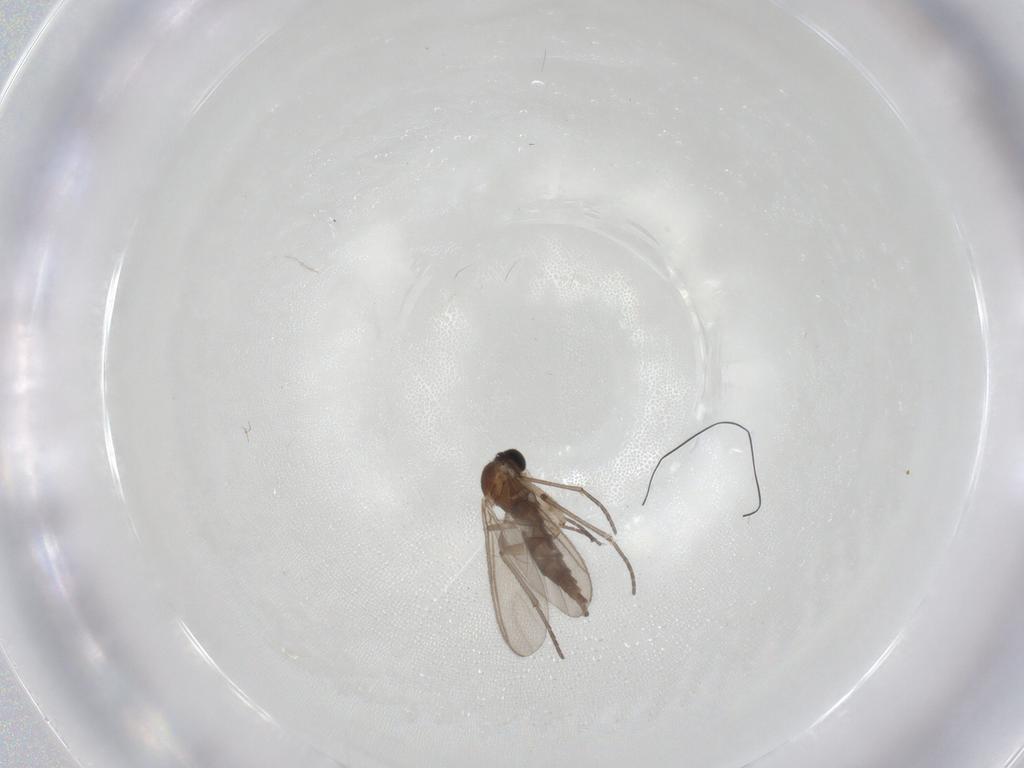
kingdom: Animalia
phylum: Arthropoda
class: Insecta
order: Diptera
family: Sciaridae
